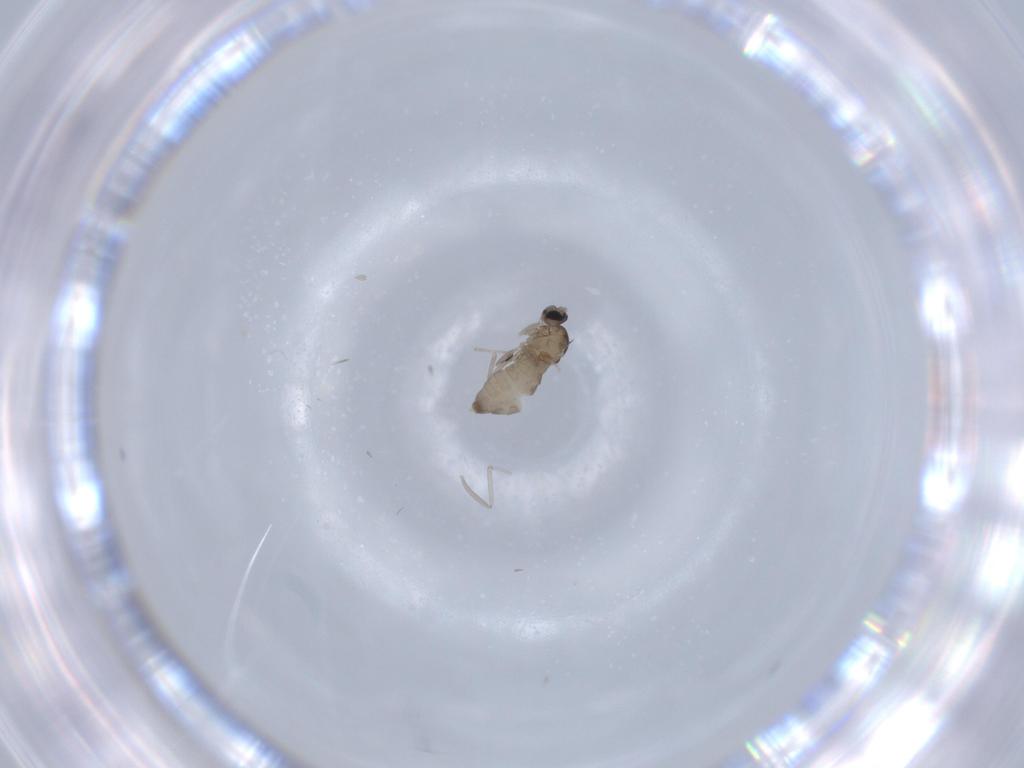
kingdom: Animalia
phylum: Arthropoda
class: Insecta
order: Diptera
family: Cecidomyiidae
